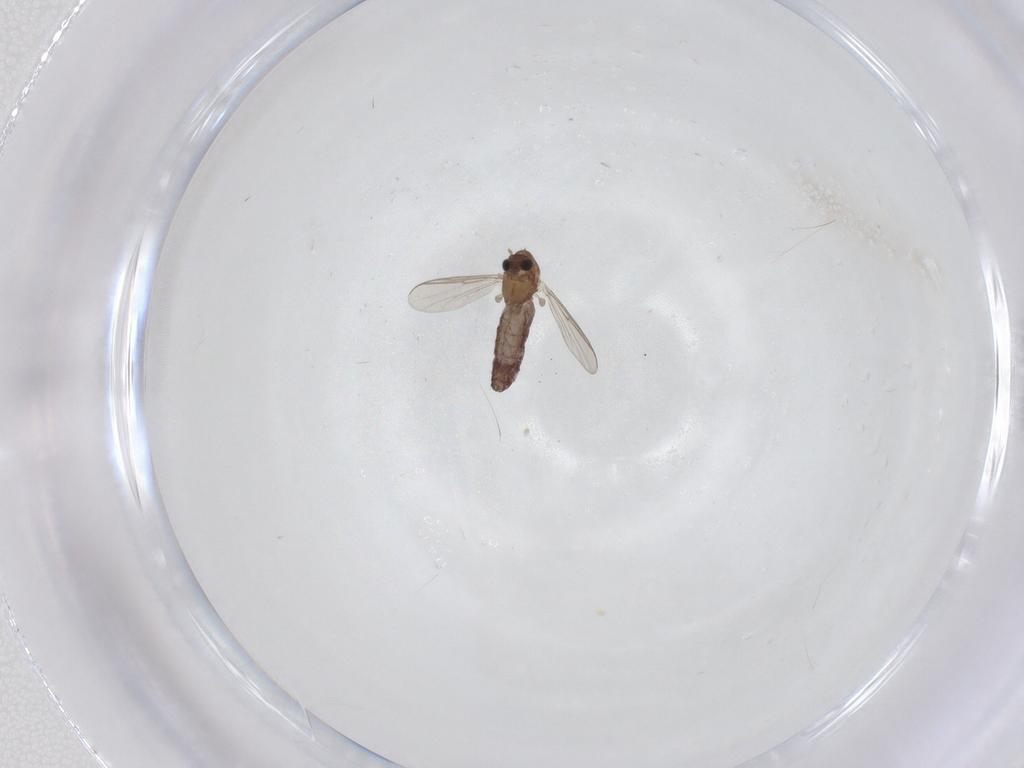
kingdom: Animalia
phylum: Arthropoda
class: Insecta
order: Diptera
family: Chironomidae
